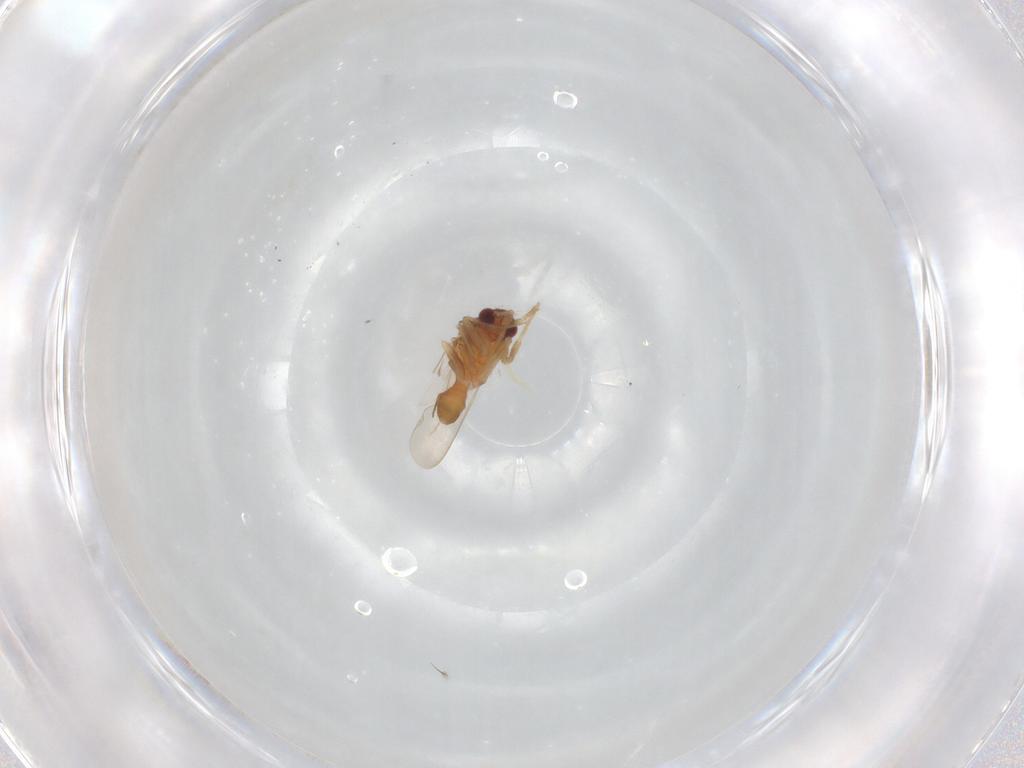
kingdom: Animalia
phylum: Arthropoda
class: Insecta
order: Hemiptera
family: Ceratocombidae
